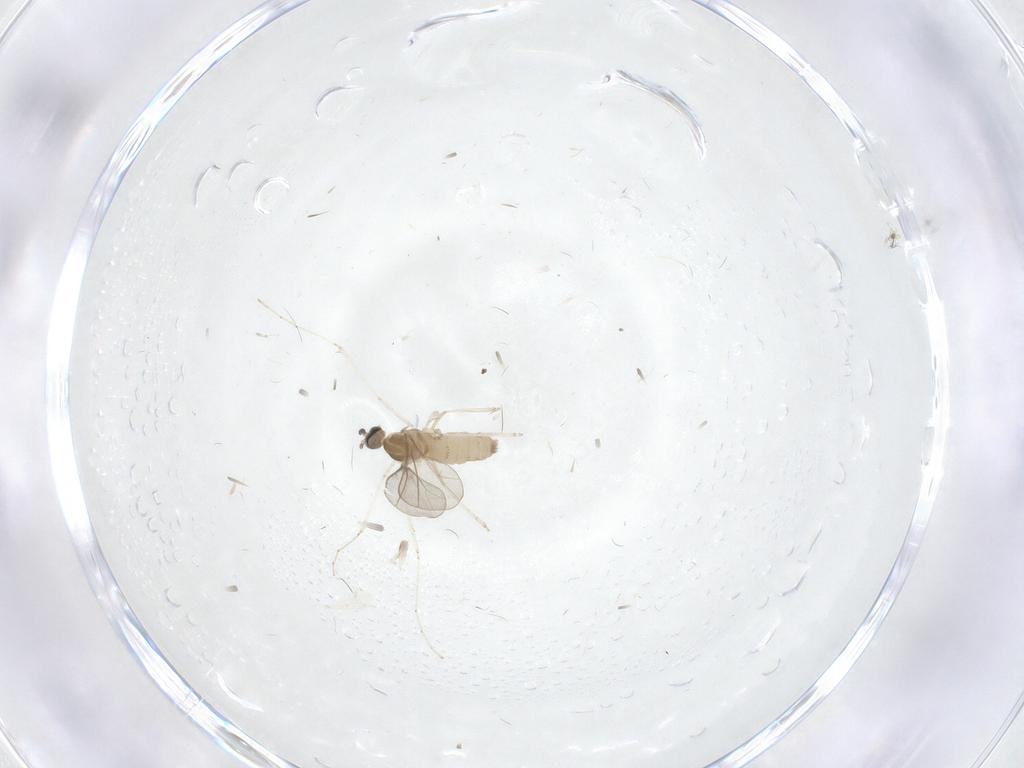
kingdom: Animalia
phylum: Arthropoda
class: Insecta
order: Diptera
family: Cecidomyiidae
